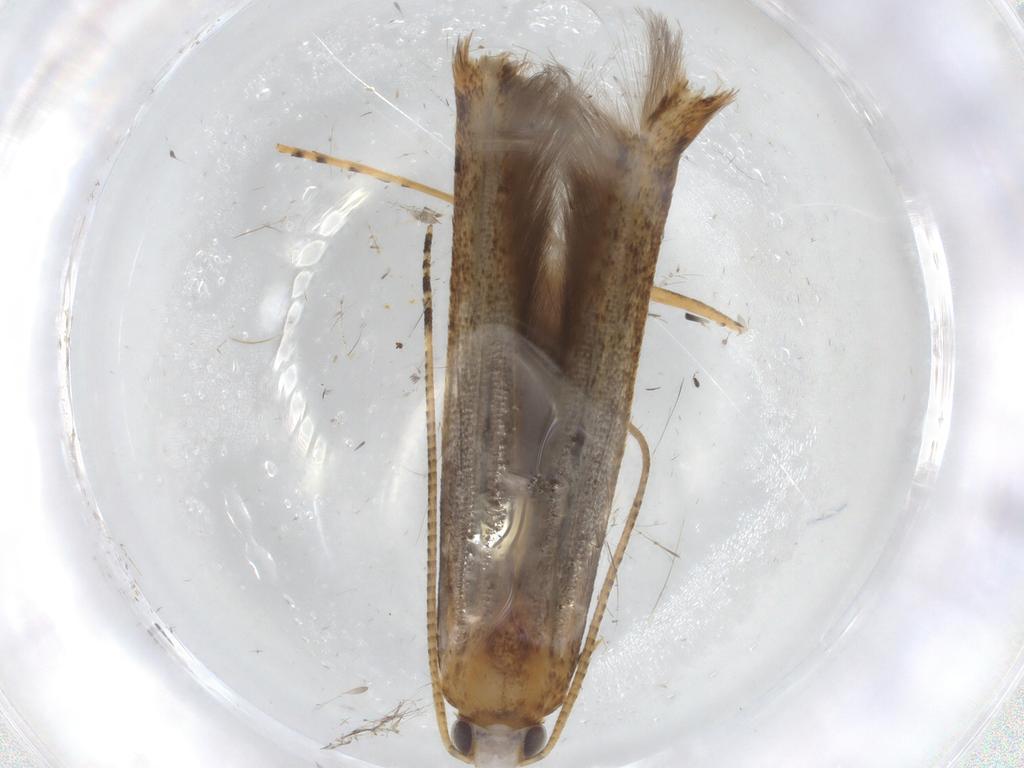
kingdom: Animalia
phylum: Arthropoda
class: Insecta
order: Lepidoptera
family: Batrachedridae
